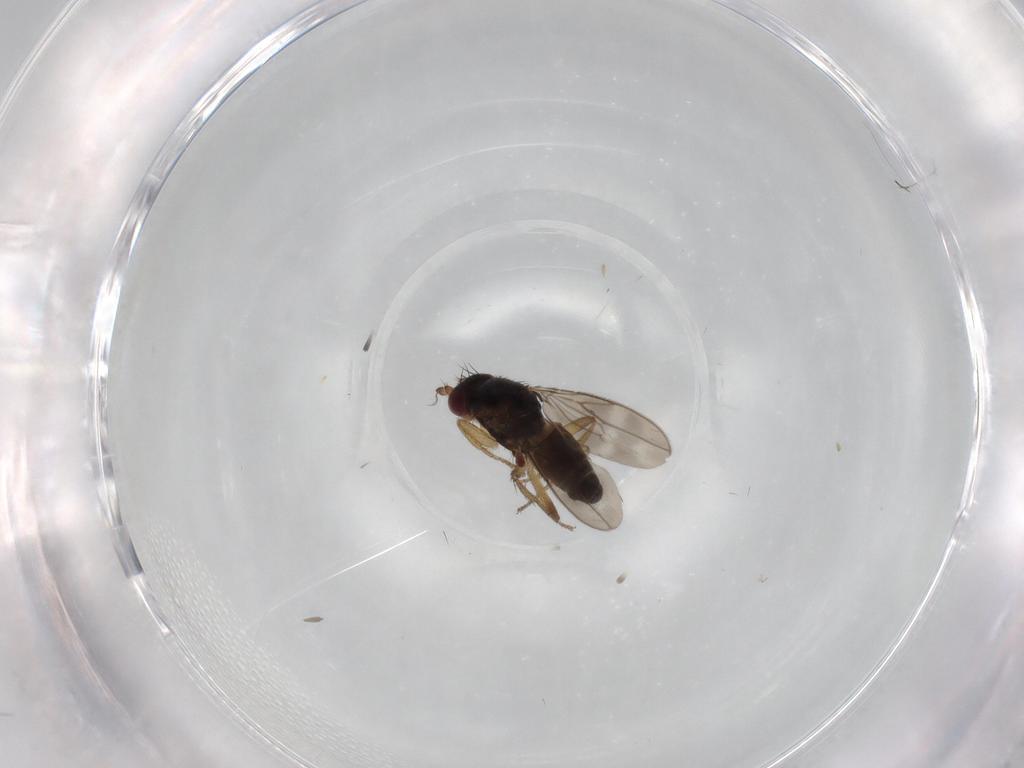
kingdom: Animalia
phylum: Arthropoda
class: Insecta
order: Diptera
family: Sphaeroceridae
